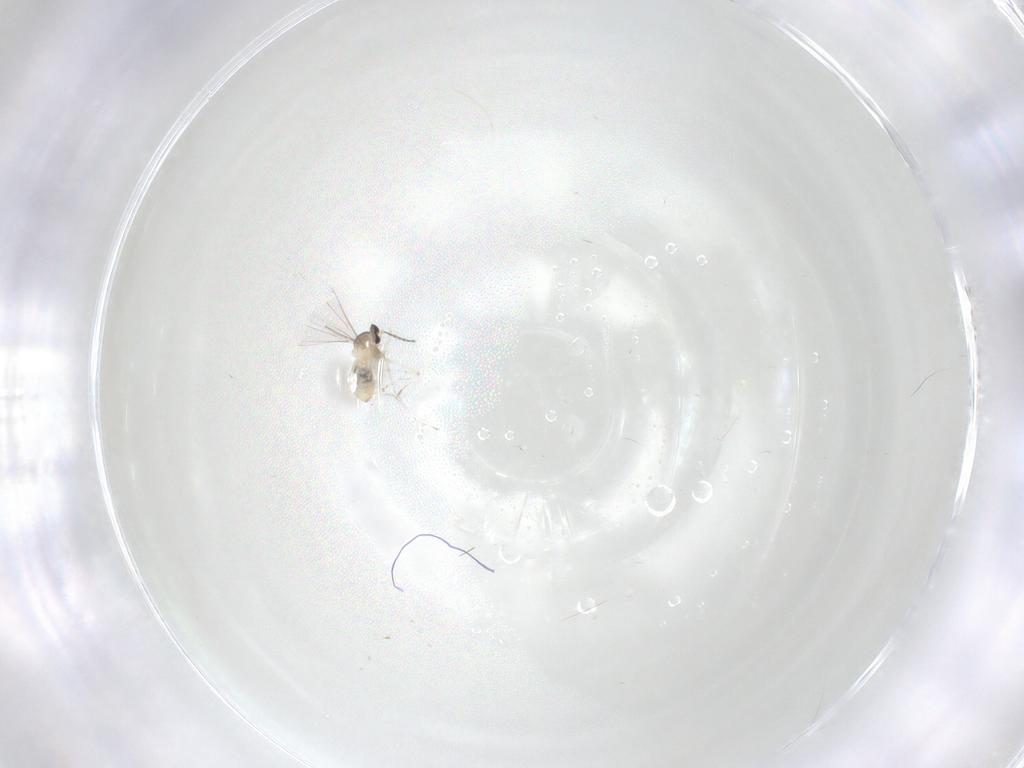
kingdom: Animalia
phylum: Arthropoda
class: Insecta
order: Diptera
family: Cecidomyiidae
